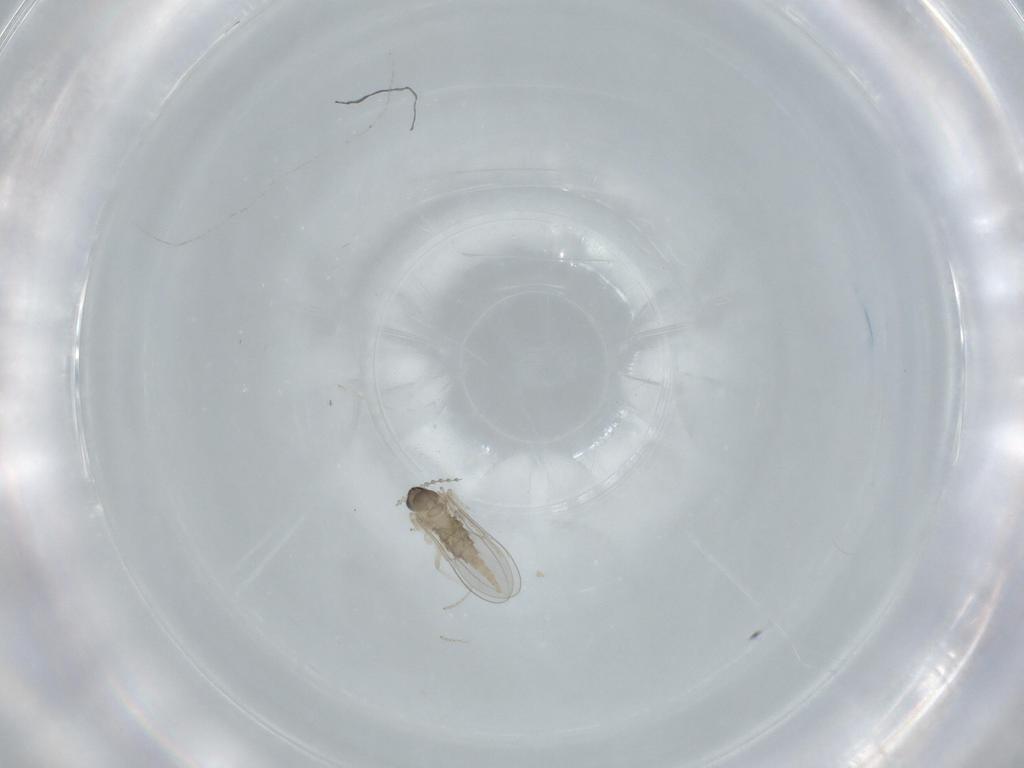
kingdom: Animalia
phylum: Arthropoda
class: Insecta
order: Diptera
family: Cecidomyiidae
